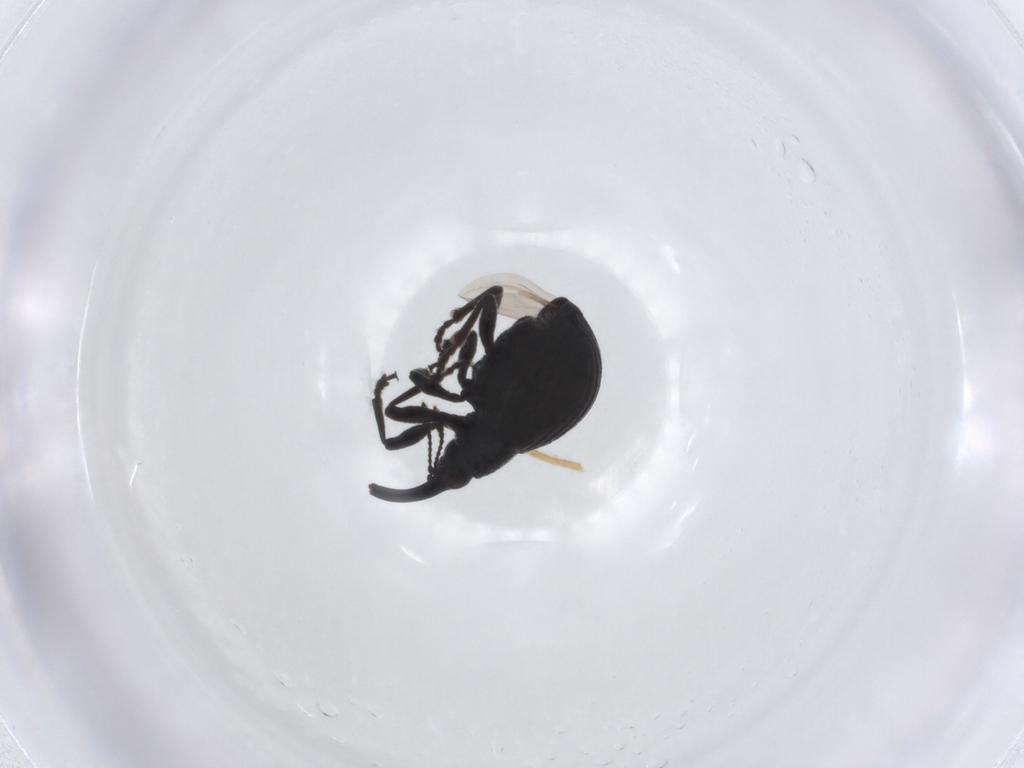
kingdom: Animalia
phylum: Arthropoda
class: Insecta
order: Coleoptera
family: Brentidae
